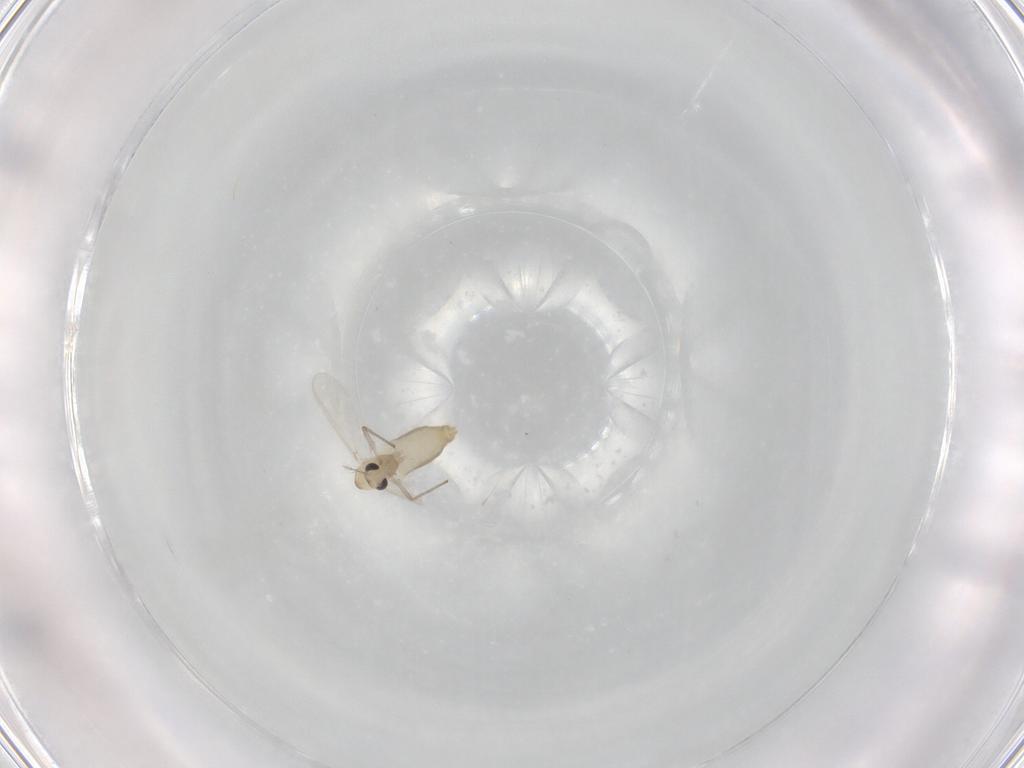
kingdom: Animalia
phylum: Arthropoda
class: Insecta
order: Diptera
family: Chironomidae
